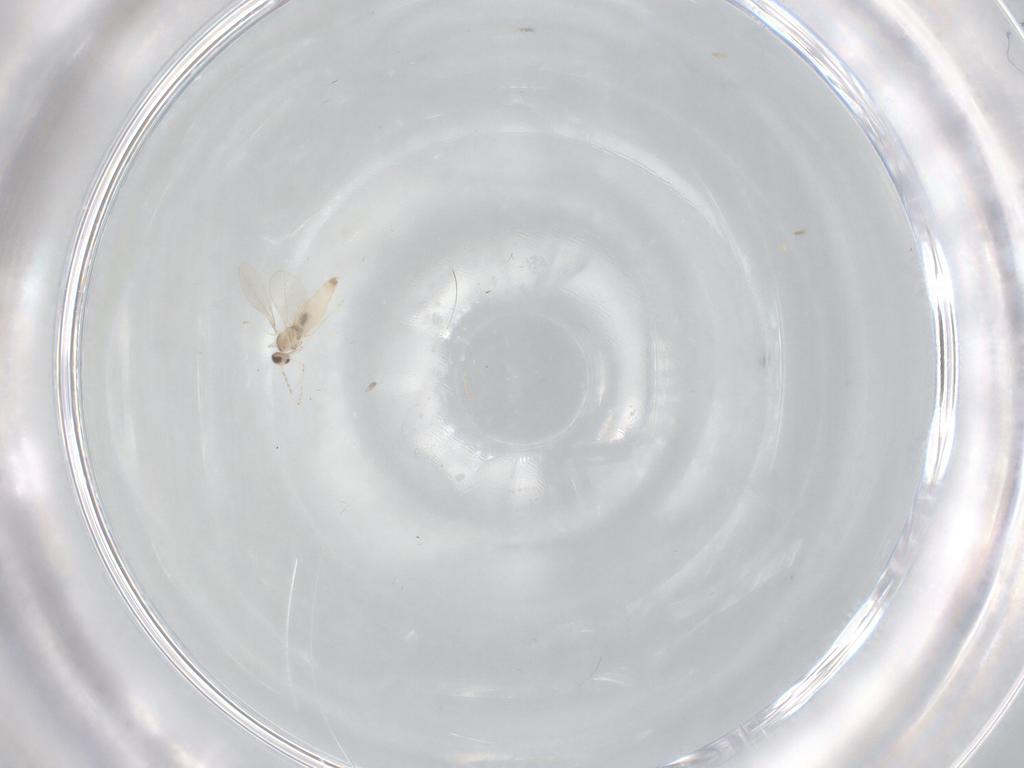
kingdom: Animalia
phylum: Arthropoda
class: Insecta
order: Diptera
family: Cecidomyiidae
